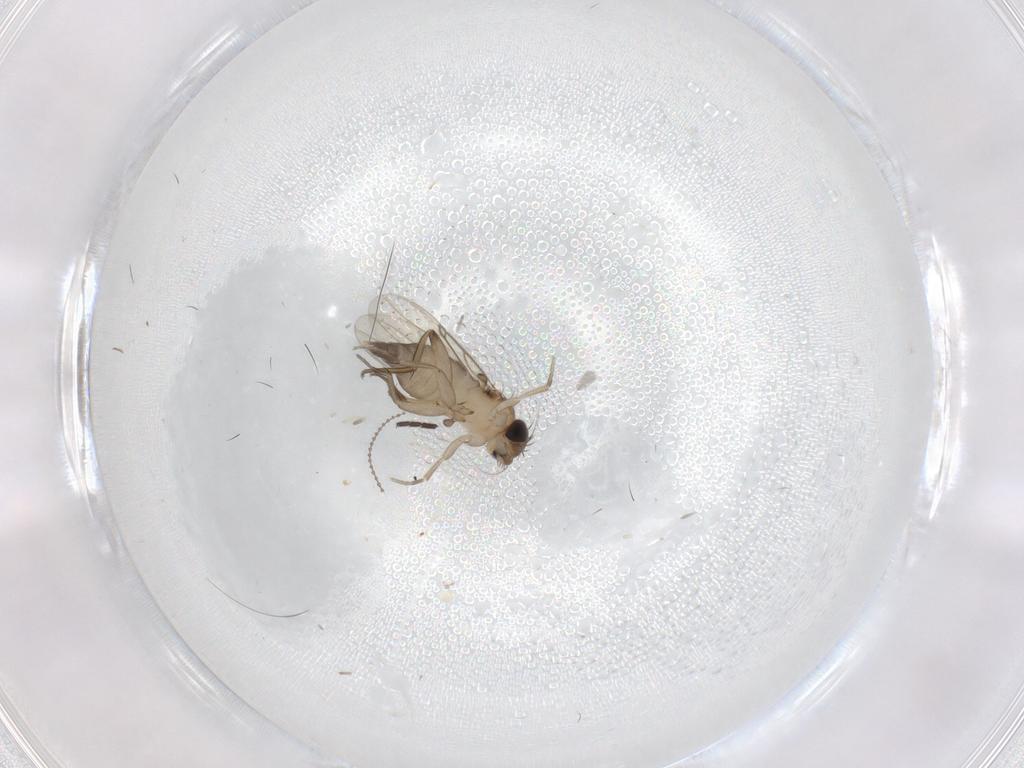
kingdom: Animalia
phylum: Arthropoda
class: Insecta
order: Diptera
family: Phoridae
